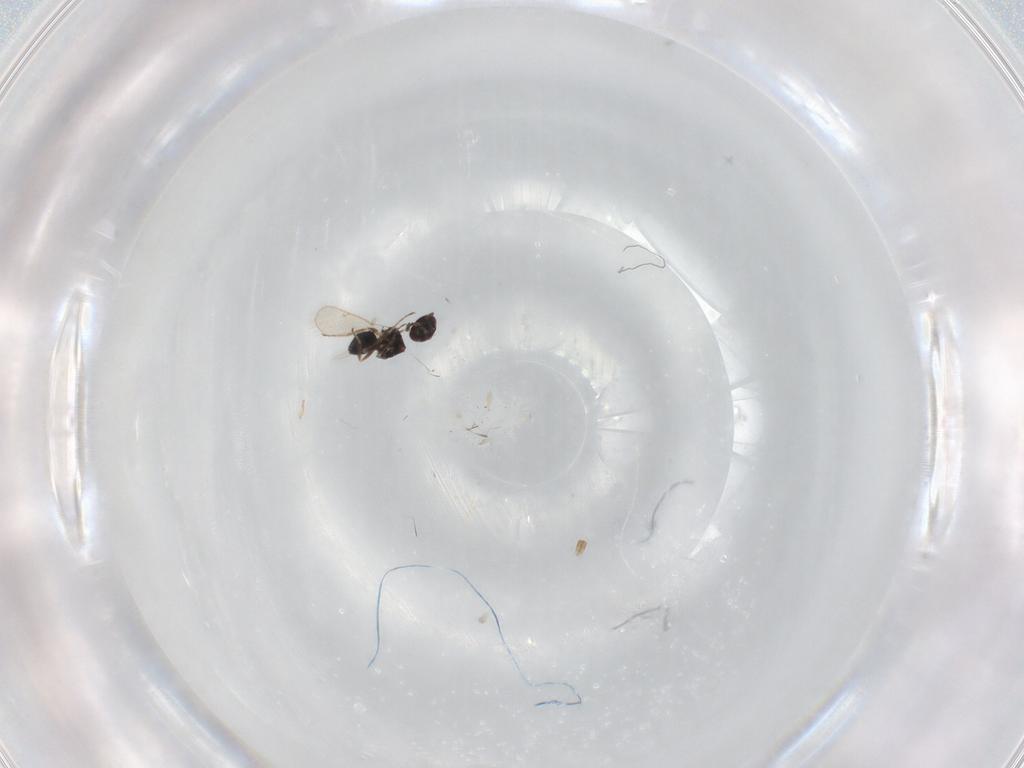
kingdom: Animalia
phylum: Arthropoda
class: Insecta
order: Hymenoptera
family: Tetracampidae
